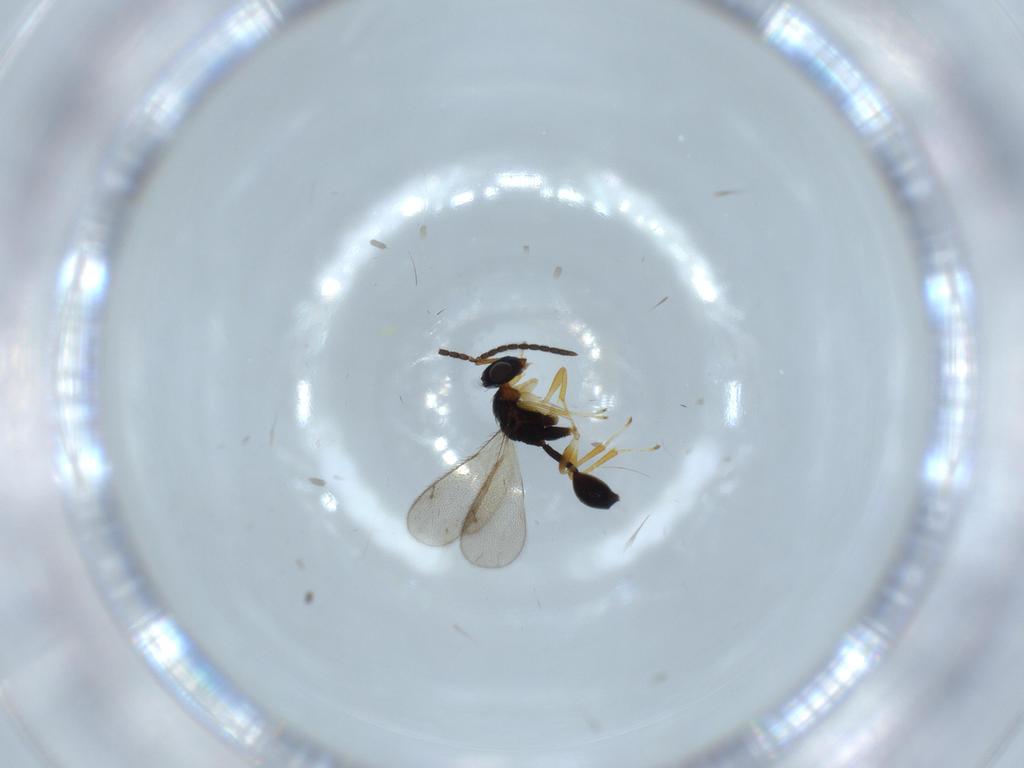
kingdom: Animalia
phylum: Arthropoda
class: Insecta
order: Hymenoptera
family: Diparidae
